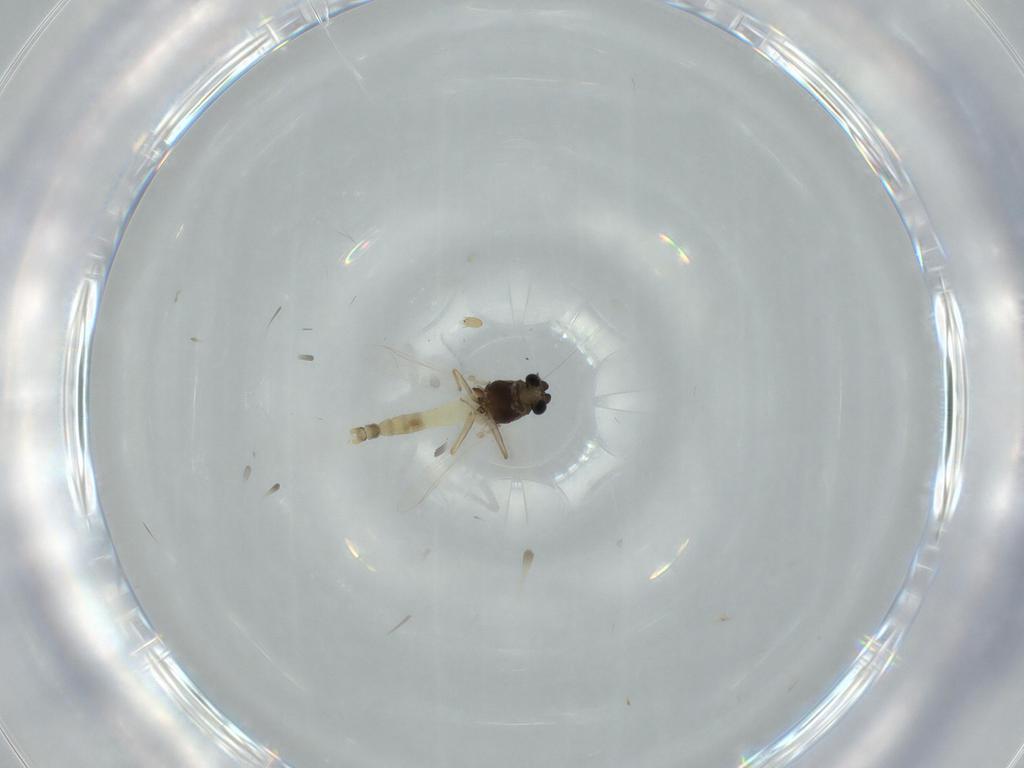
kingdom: Animalia
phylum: Arthropoda
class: Insecta
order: Diptera
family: Chironomidae
